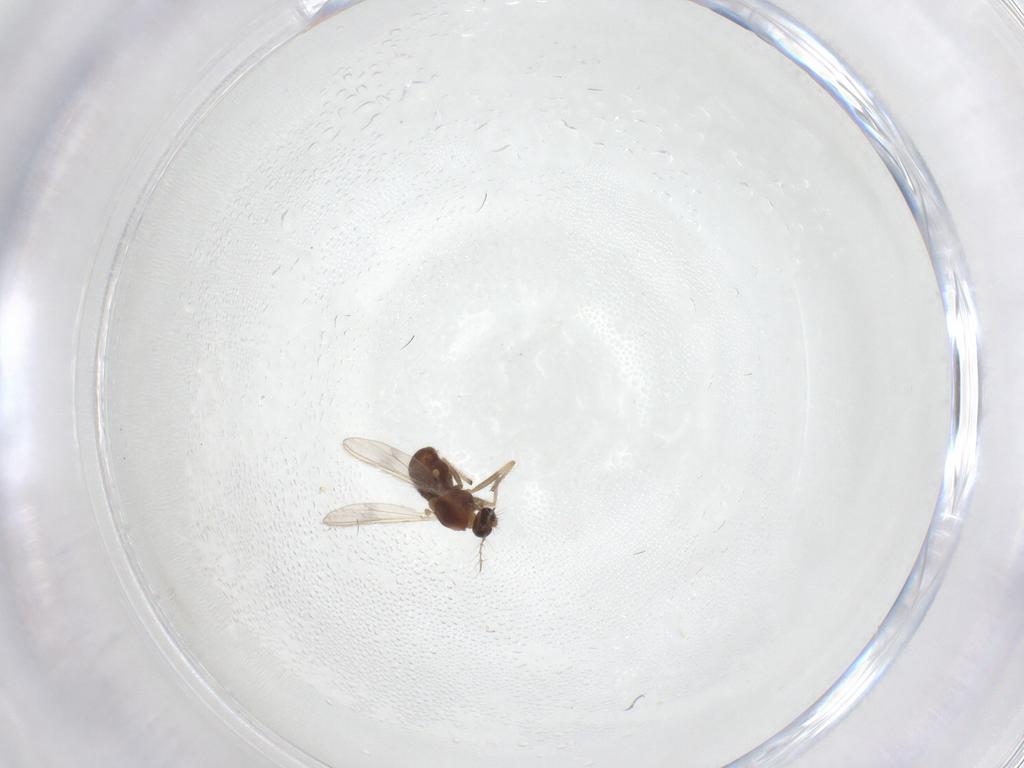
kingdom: Animalia
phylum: Arthropoda
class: Insecta
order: Diptera
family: Chironomidae
